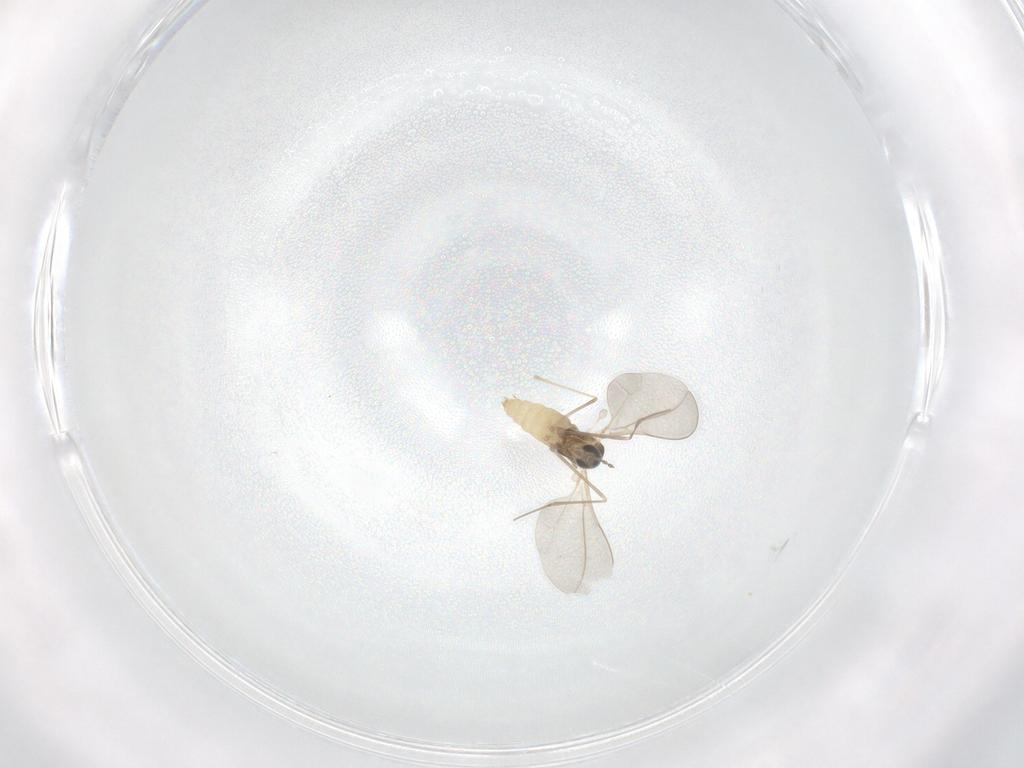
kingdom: Animalia
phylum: Arthropoda
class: Insecta
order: Diptera
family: Cecidomyiidae
